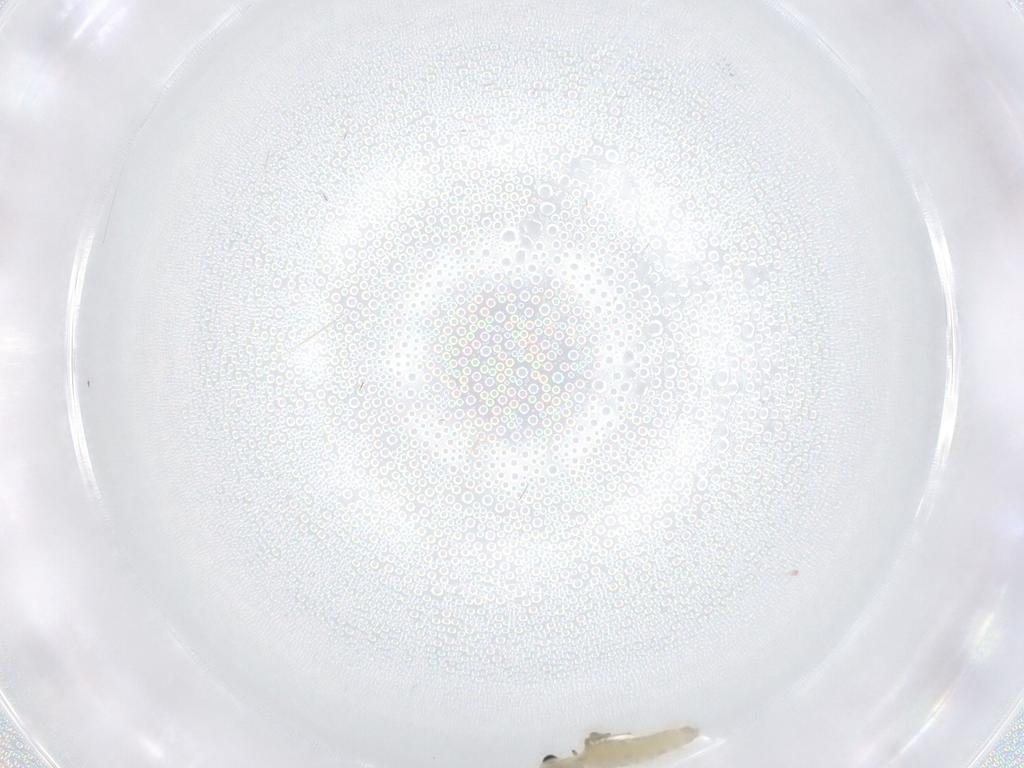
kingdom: Animalia
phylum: Arthropoda
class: Insecta
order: Diptera
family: Chironomidae
